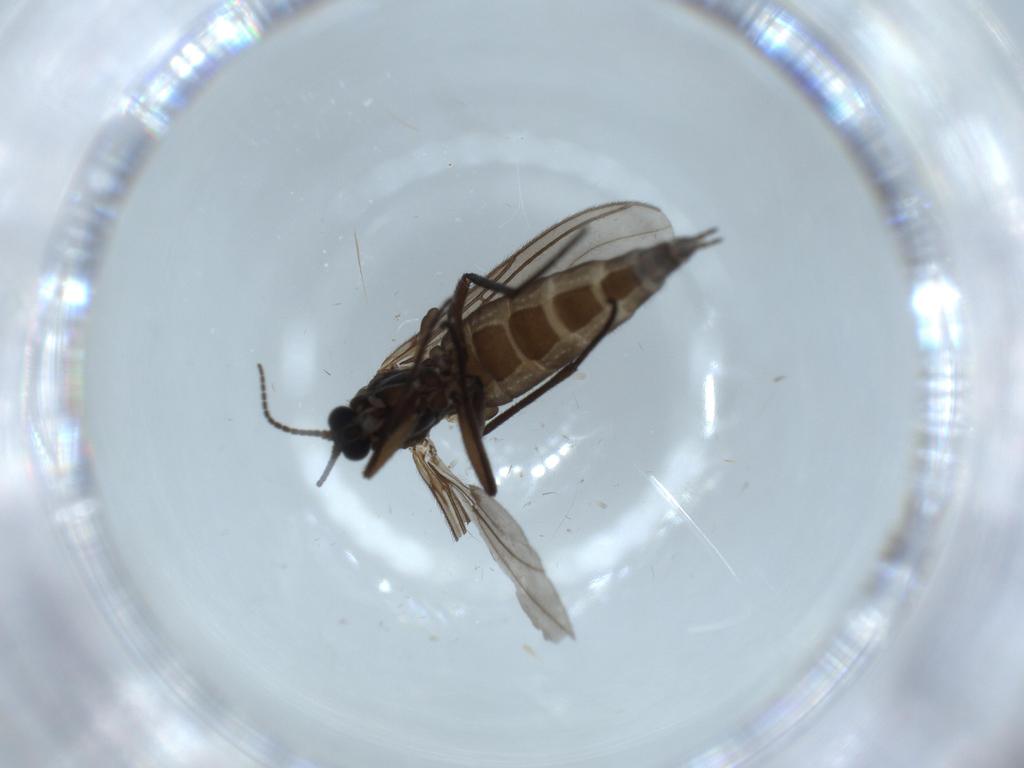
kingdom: Animalia
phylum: Arthropoda
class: Insecta
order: Diptera
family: Sciaridae
